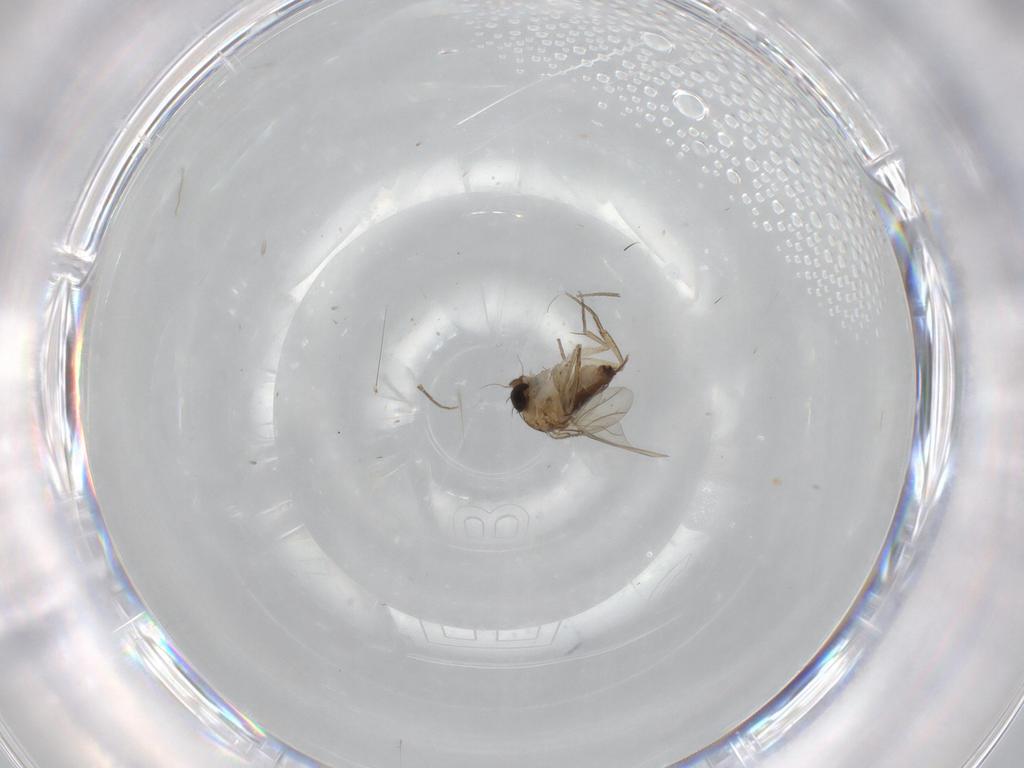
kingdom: Animalia
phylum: Arthropoda
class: Insecta
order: Diptera
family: Phoridae
